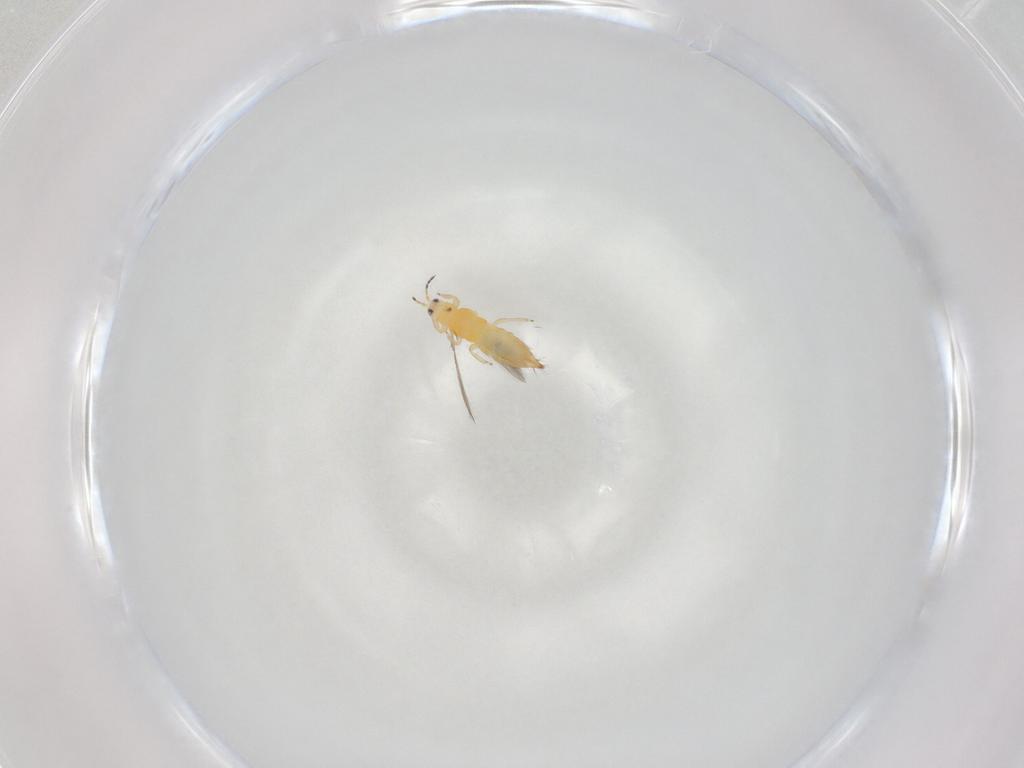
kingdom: Animalia
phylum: Arthropoda
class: Insecta
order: Thysanoptera
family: Thripidae
